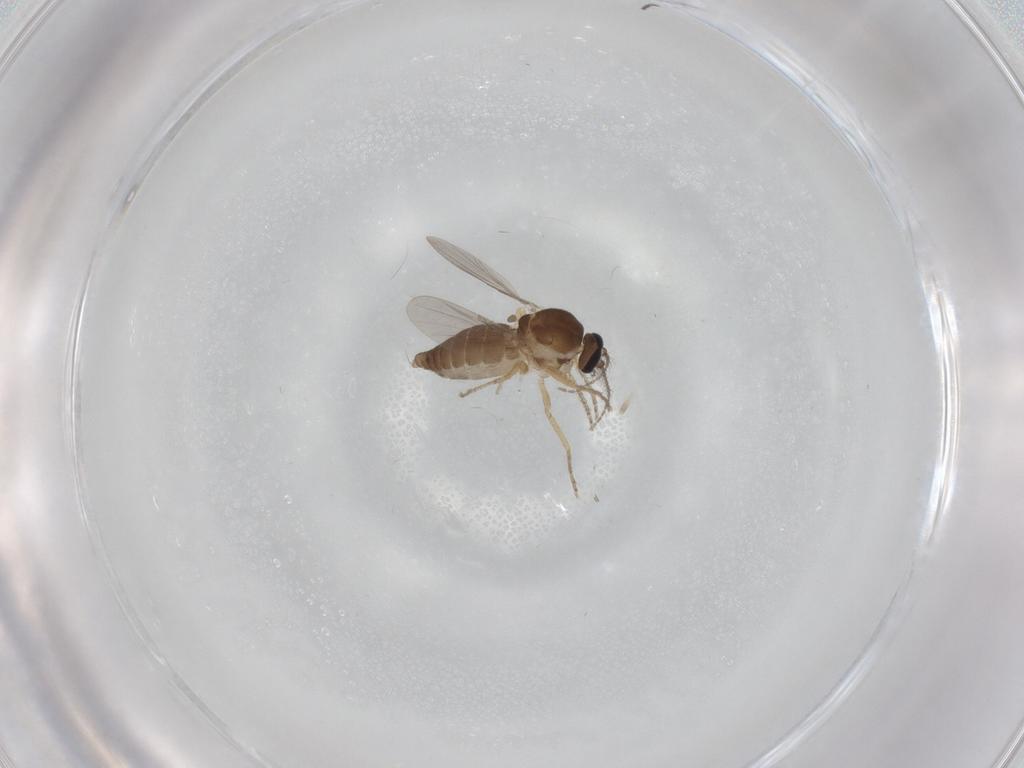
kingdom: Animalia
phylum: Arthropoda
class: Insecta
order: Diptera
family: Ceratopogonidae
